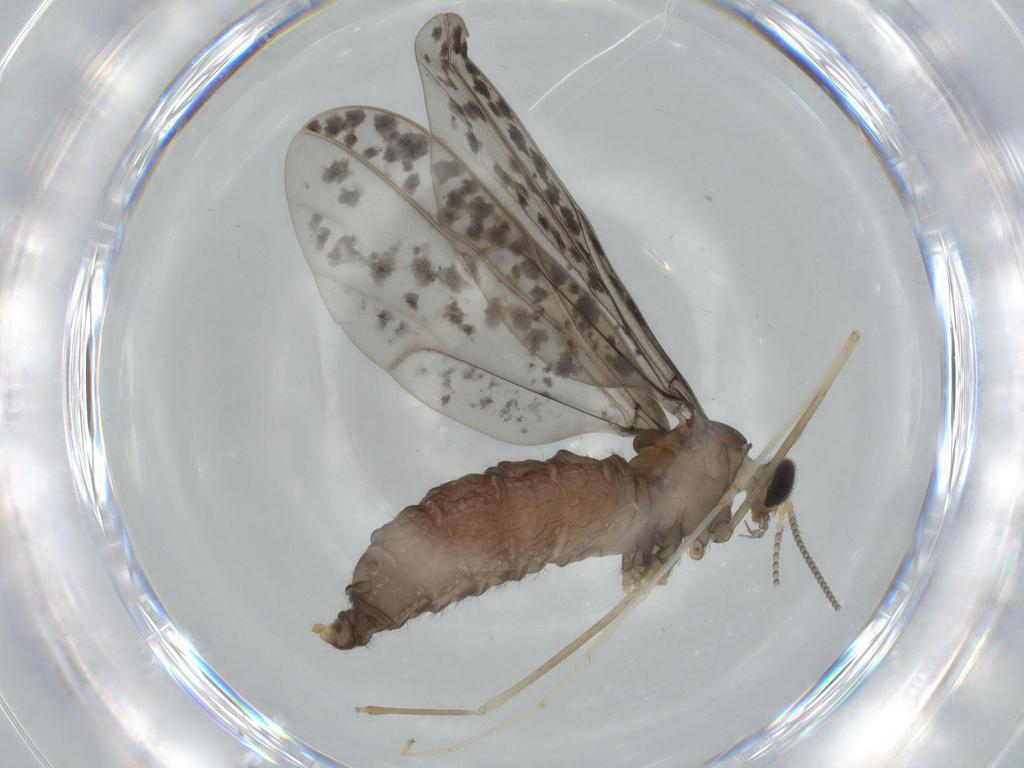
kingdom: Animalia
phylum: Arthropoda
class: Insecta
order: Diptera
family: Cecidomyiidae
